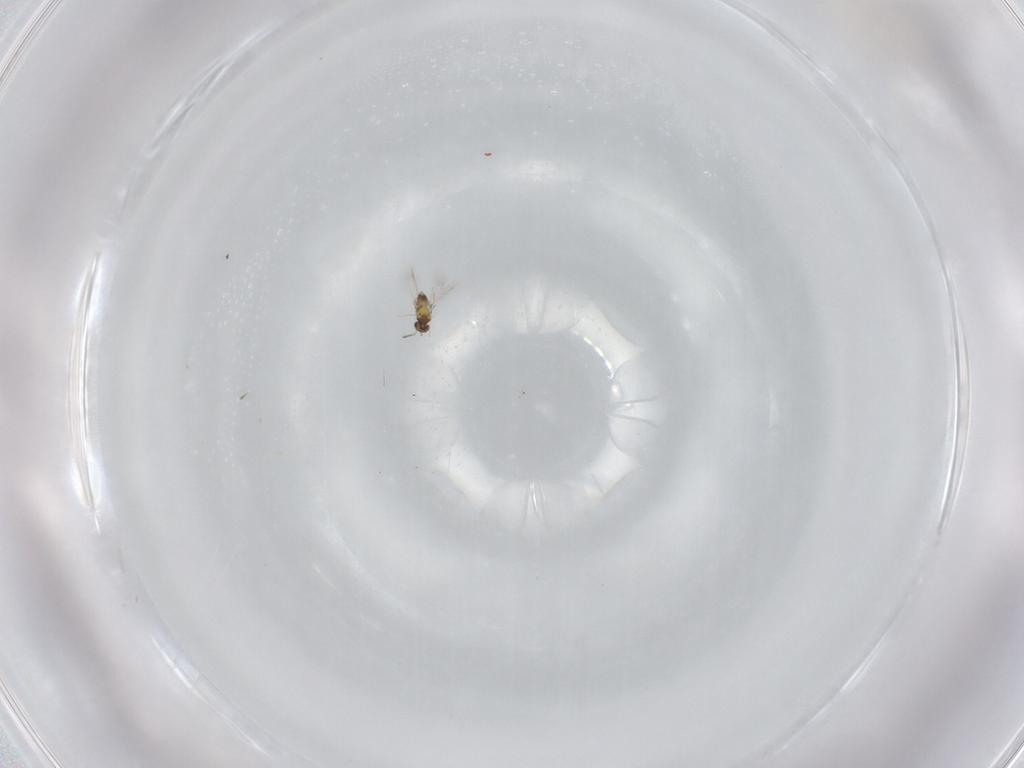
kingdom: Animalia
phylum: Arthropoda
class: Insecta
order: Hymenoptera
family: Mymaridae
